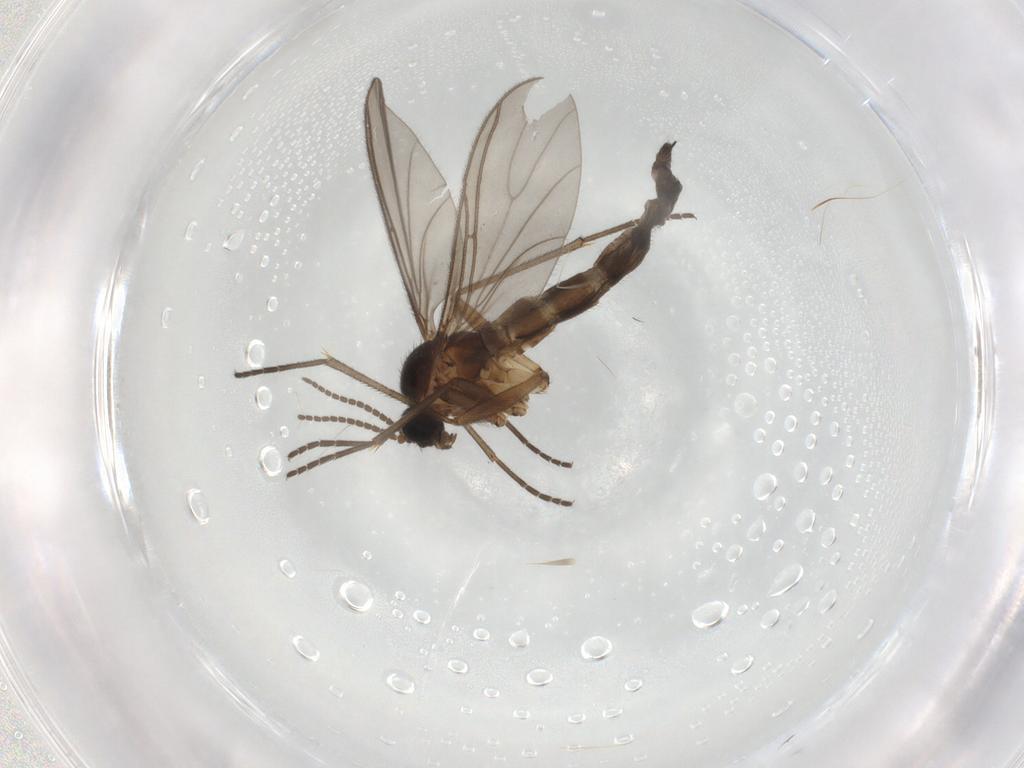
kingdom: Animalia
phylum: Arthropoda
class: Insecta
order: Diptera
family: Sciaridae
